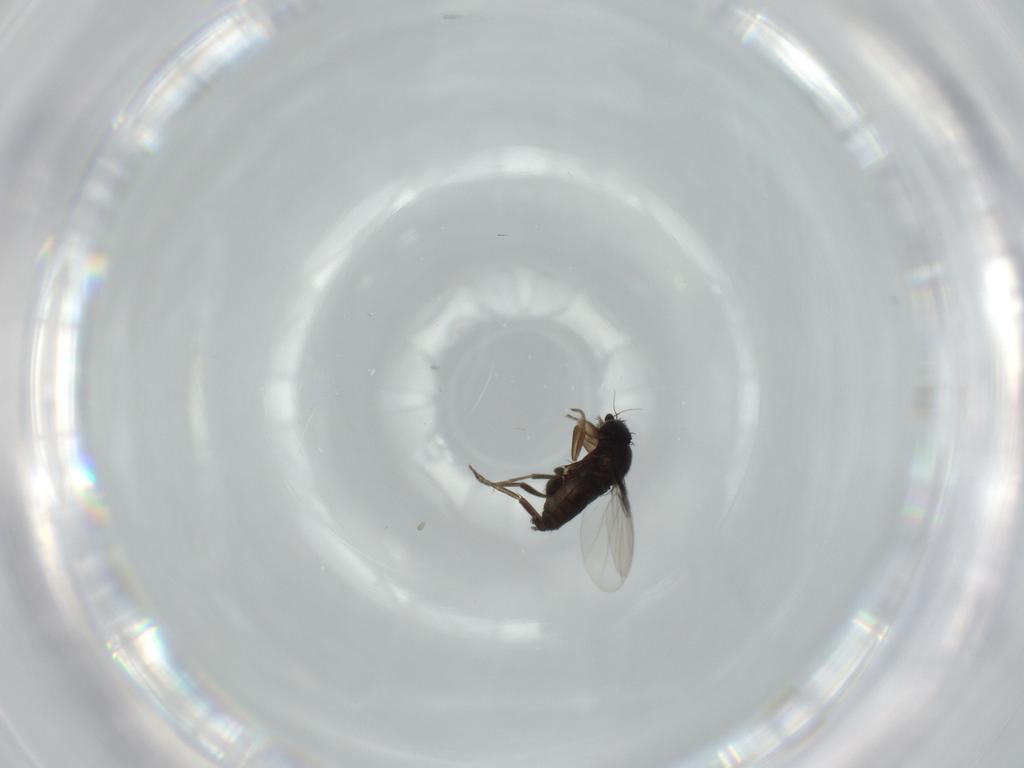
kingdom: Animalia
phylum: Arthropoda
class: Insecta
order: Diptera
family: Phoridae
